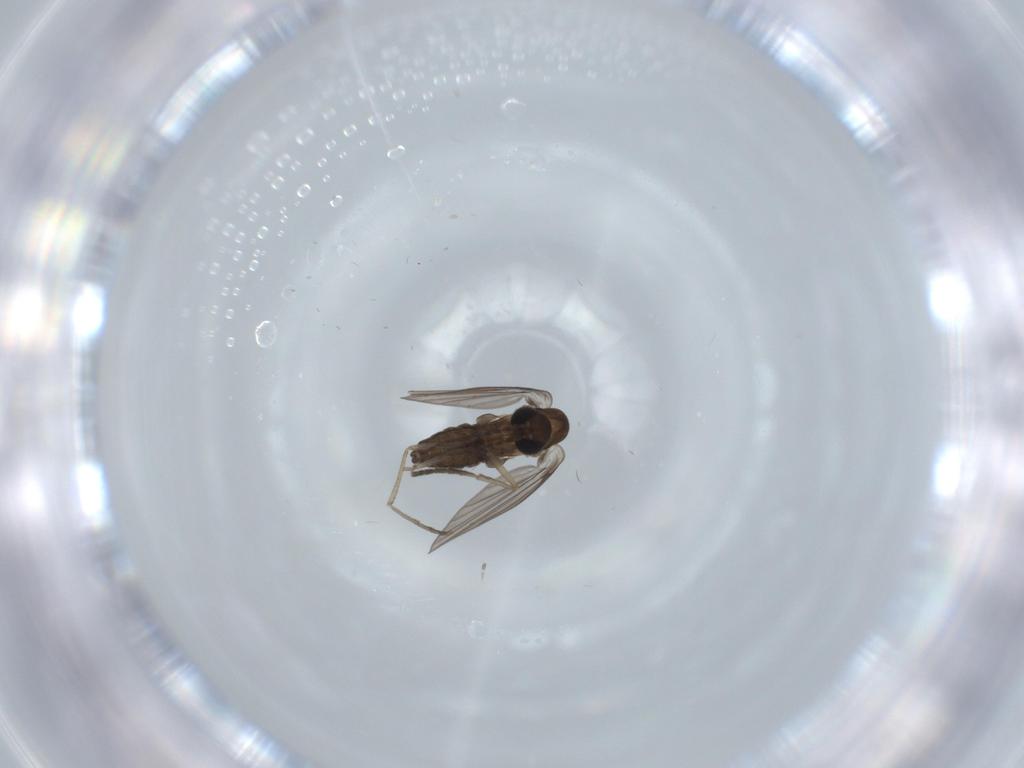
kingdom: Animalia
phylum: Arthropoda
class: Insecta
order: Diptera
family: Psychodidae
